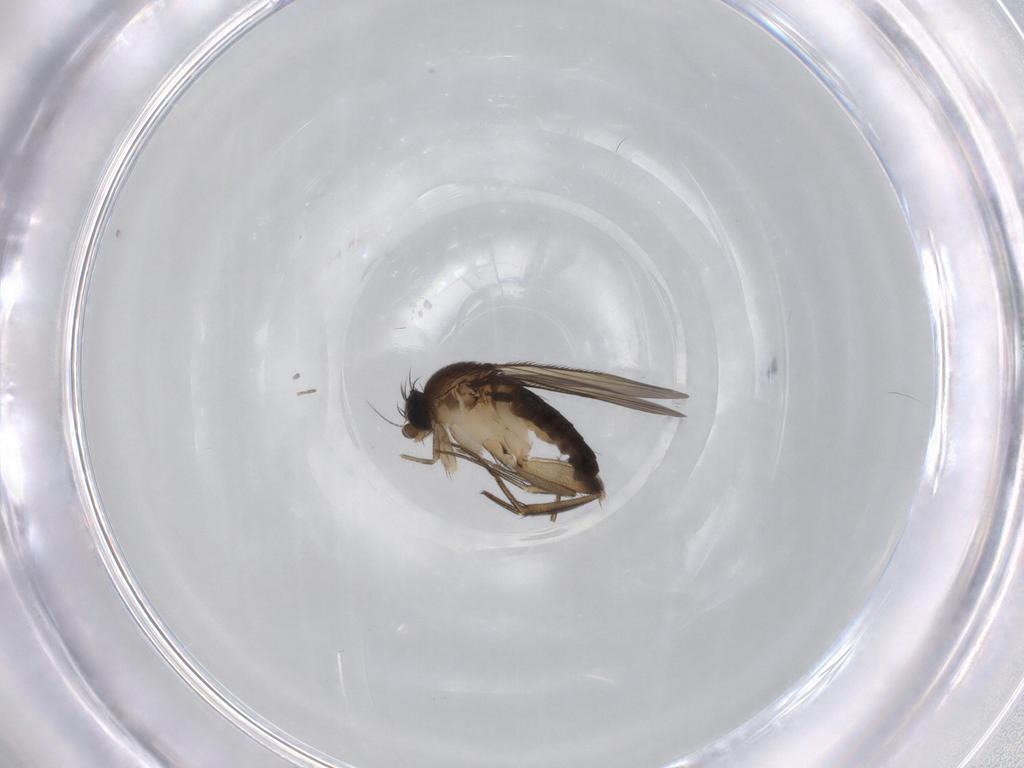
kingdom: Animalia
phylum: Arthropoda
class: Insecta
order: Diptera
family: Phoridae
